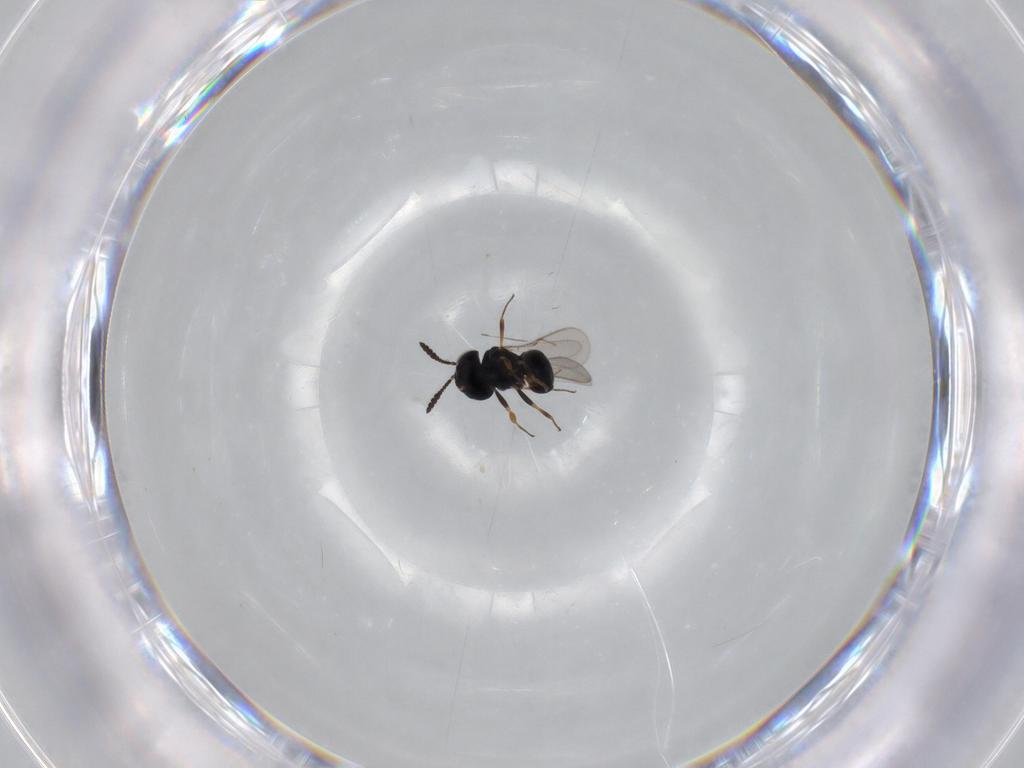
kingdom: Animalia
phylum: Arthropoda
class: Insecta
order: Hymenoptera
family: Scelionidae
